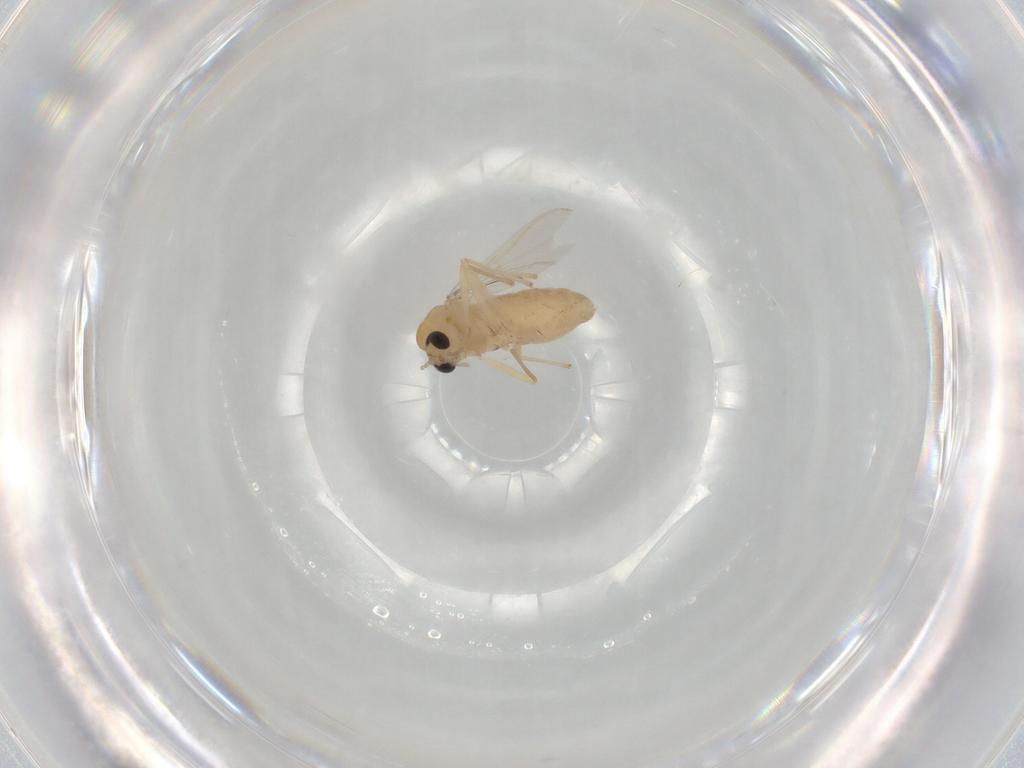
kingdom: Animalia
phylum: Arthropoda
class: Insecta
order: Diptera
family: Chironomidae
